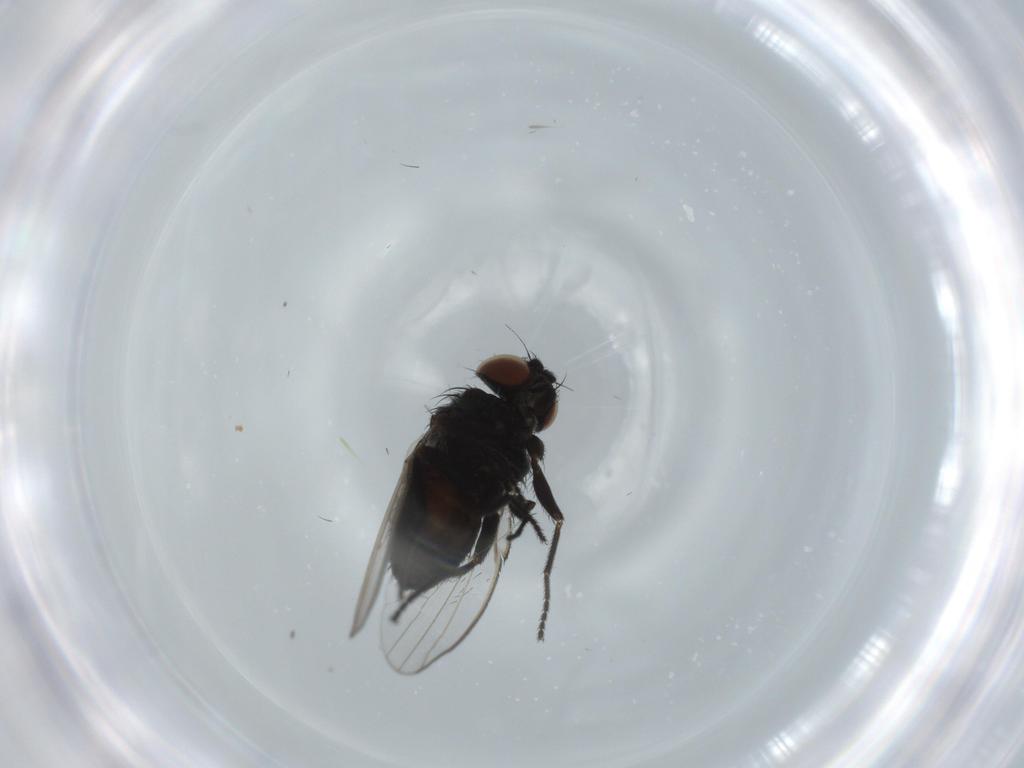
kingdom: Animalia
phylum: Arthropoda
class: Insecta
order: Diptera
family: Milichiidae
